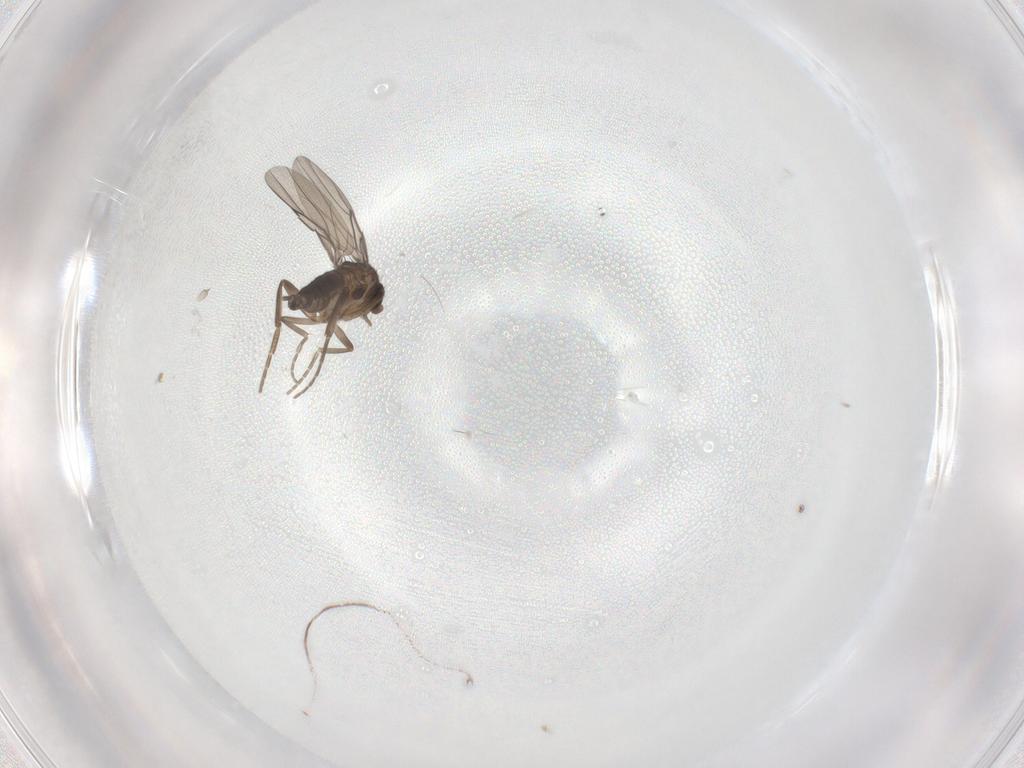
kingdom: Animalia
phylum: Arthropoda
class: Insecta
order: Diptera
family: Phoridae
